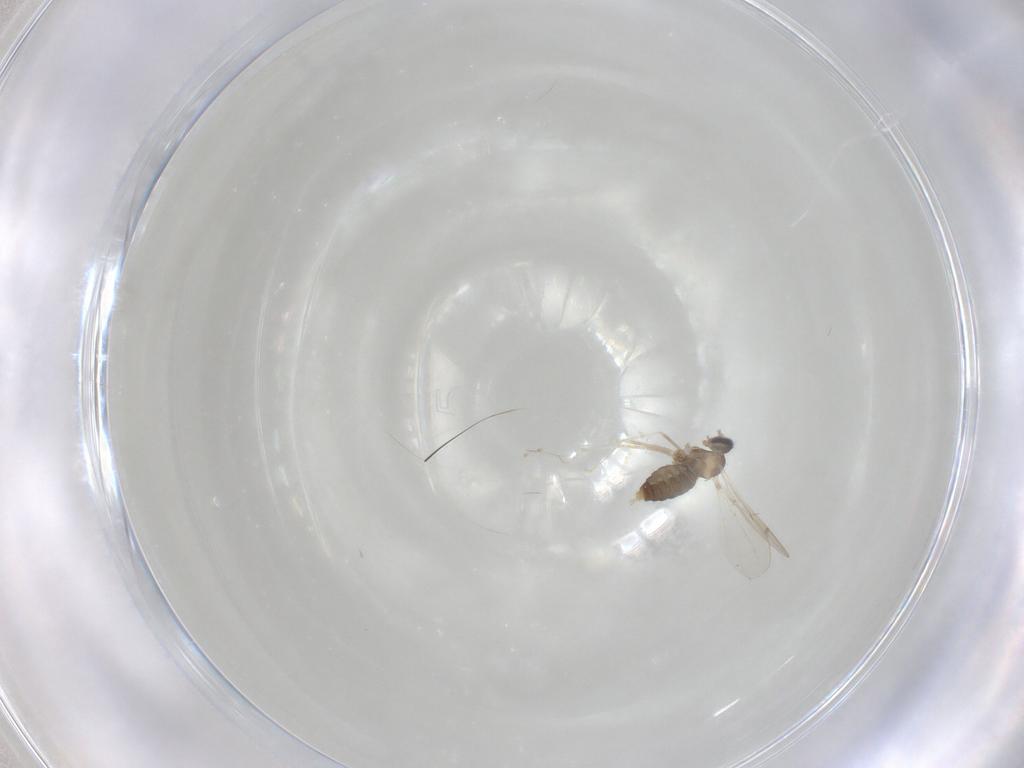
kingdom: Animalia
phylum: Arthropoda
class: Insecta
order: Diptera
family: Cecidomyiidae
